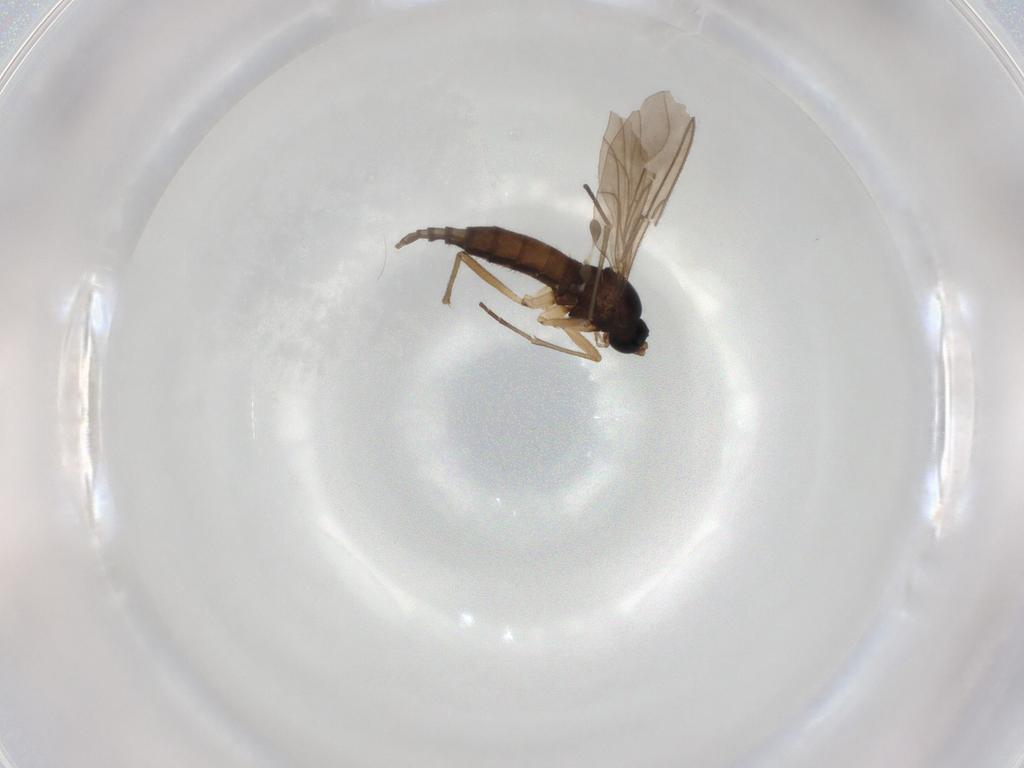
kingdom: Animalia
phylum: Arthropoda
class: Insecta
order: Diptera
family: Sciaridae
